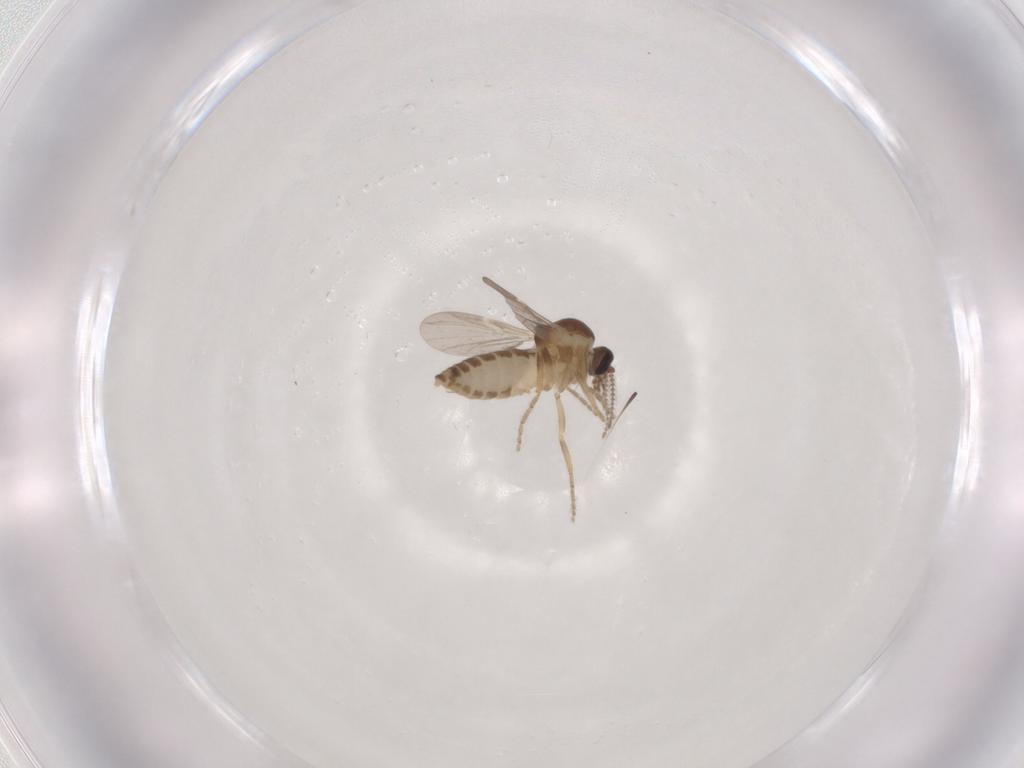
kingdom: Animalia
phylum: Arthropoda
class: Insecta
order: Diptera
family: Ceratopogonidae
